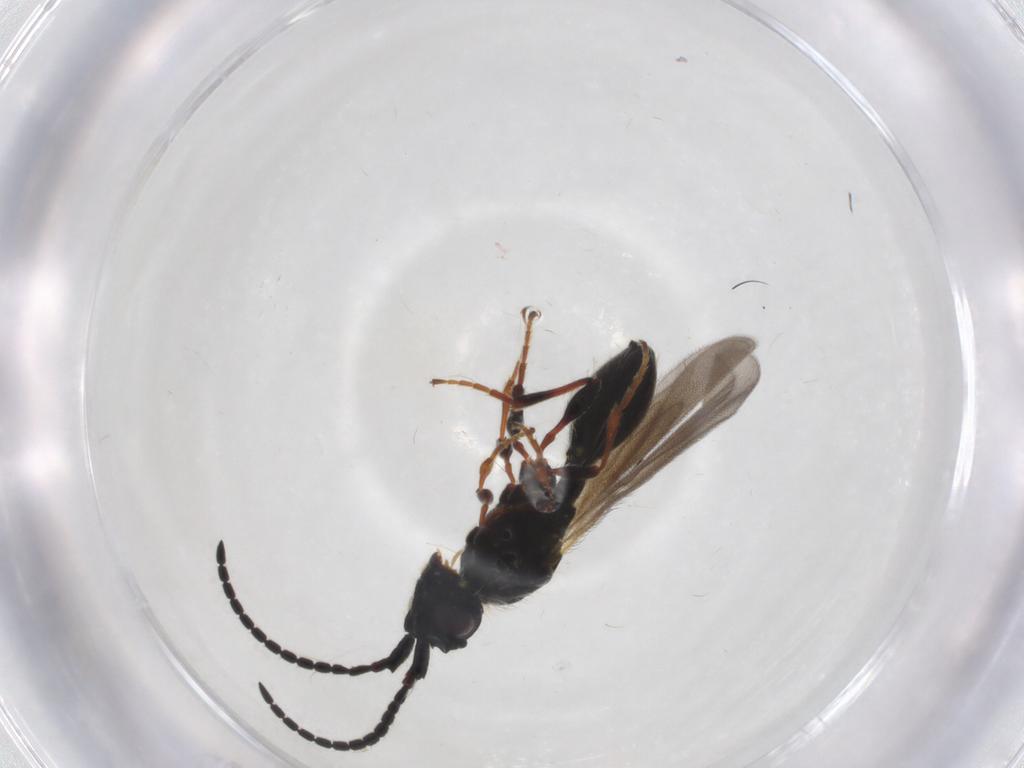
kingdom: Animalia
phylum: Arthropoda
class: Insecta
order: Hymenoptera
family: Diapriidae
